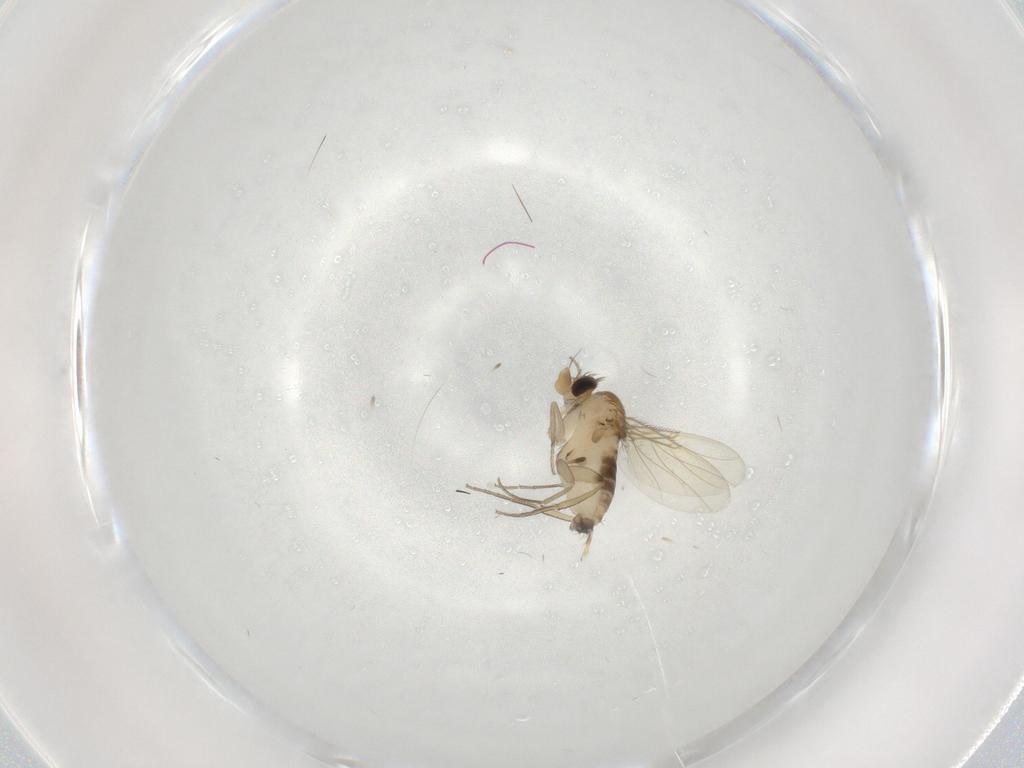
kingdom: Animalia
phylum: Arthropoda
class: Insecta
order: Diptera
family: Phoridae
